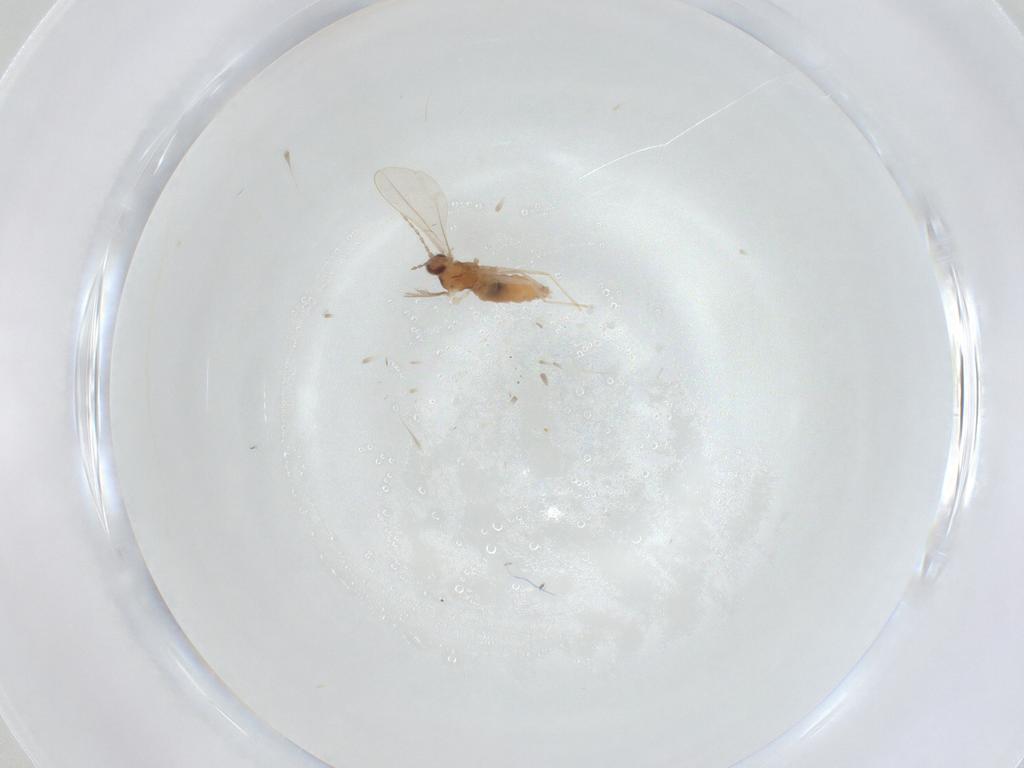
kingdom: Animalia
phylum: Arthropoda
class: Insecta
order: Diptera
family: Cecidomyiidae
